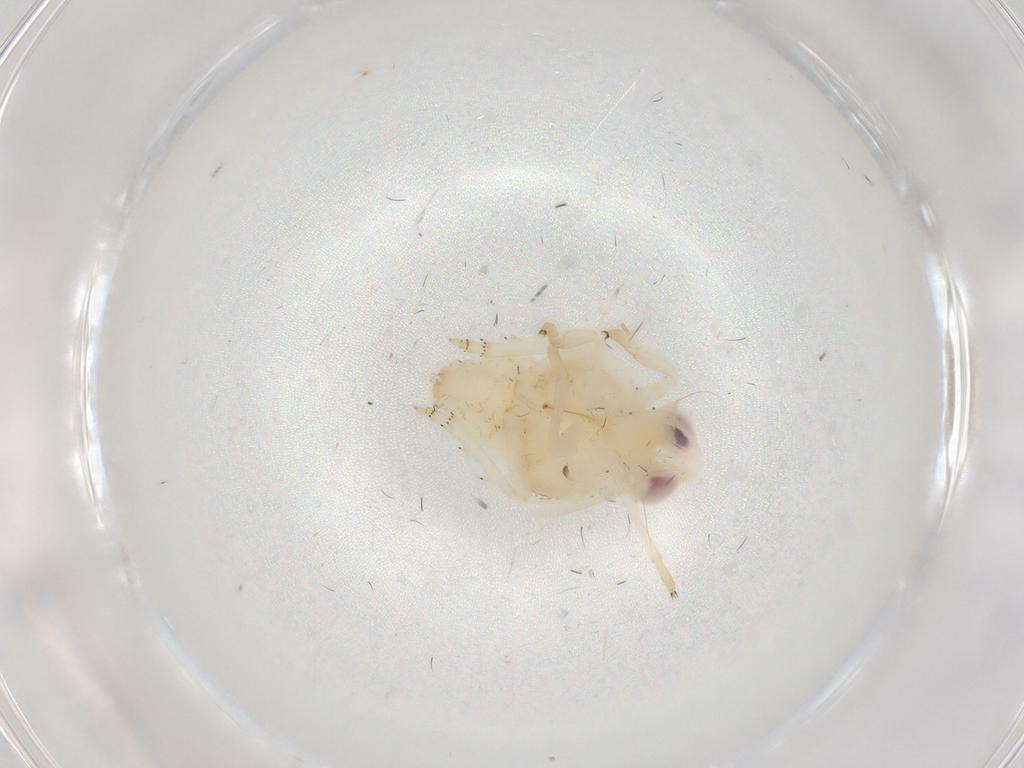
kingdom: Animalia
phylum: Arthropoda
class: Insecta
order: Hemiptera
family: Nogodinidae
